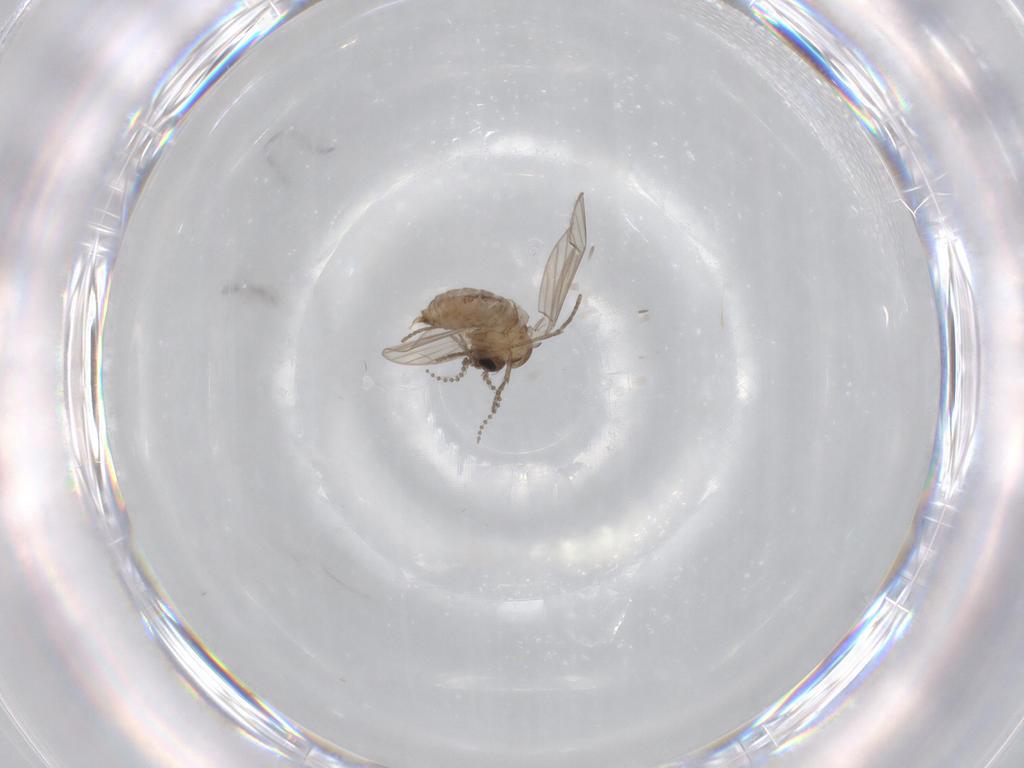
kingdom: Animalia
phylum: Arthropoda
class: Insecta
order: Diptera
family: Psychodidae
